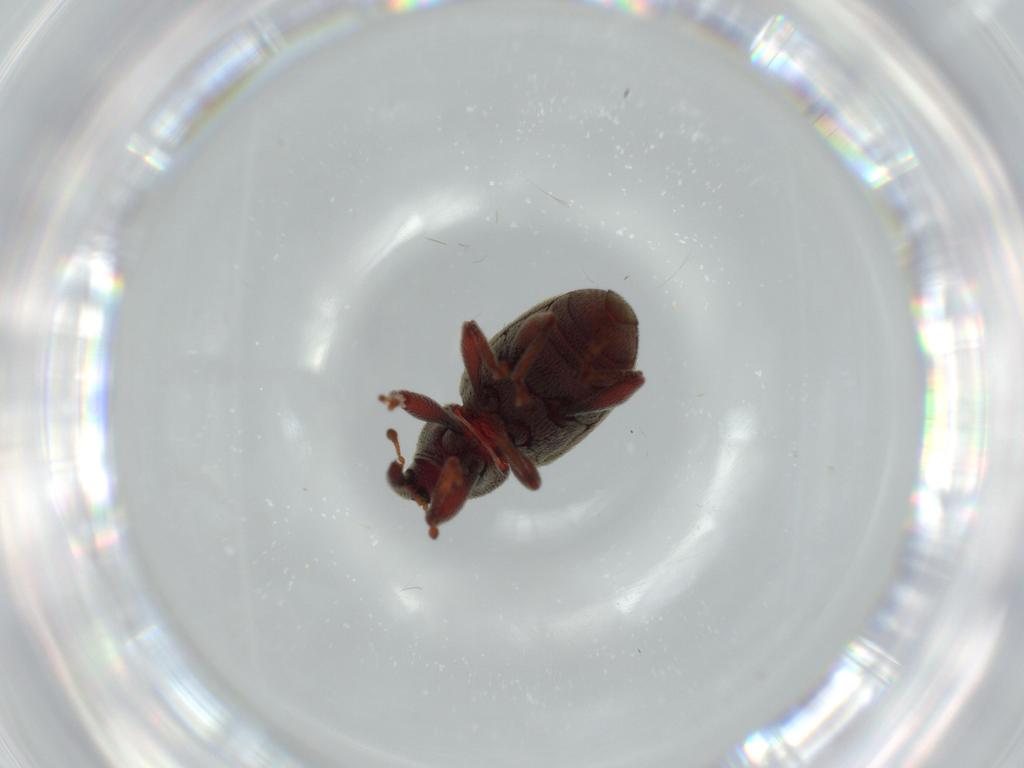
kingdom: Animalia
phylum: Arthropoda
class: Insecta
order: Coleoptera
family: Curculionidae
